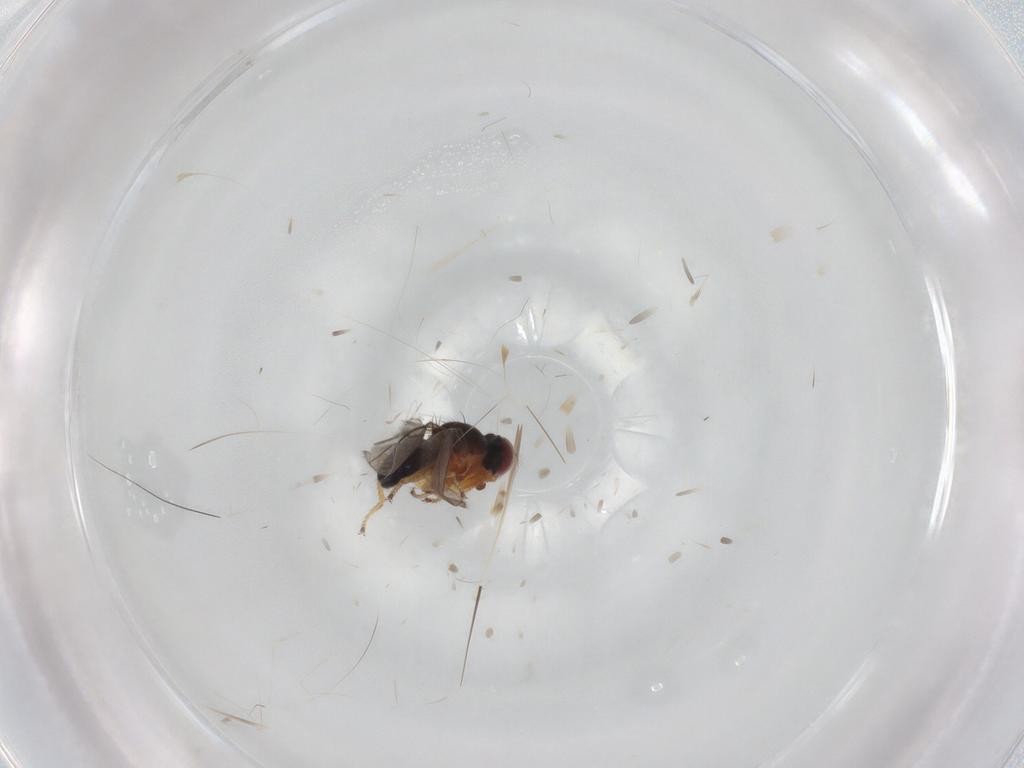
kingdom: Animalia
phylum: Arthropoda
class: Insecta
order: Diptera
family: Ephydridae
